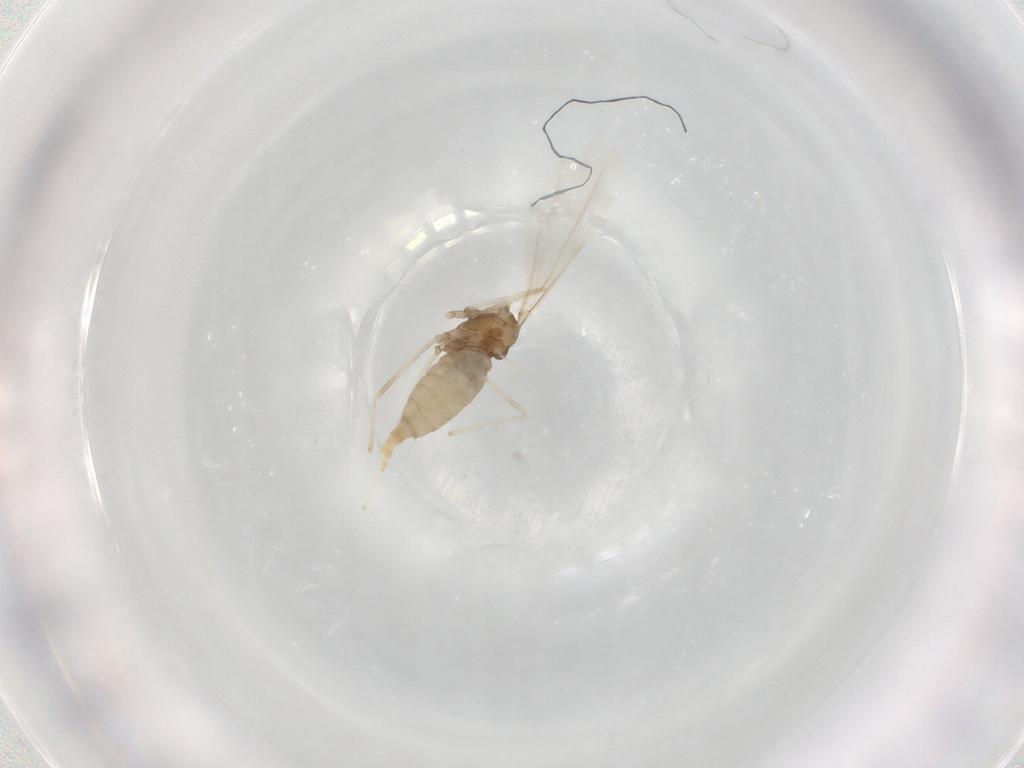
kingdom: Animalia
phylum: Arthropoda
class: Insecta
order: Diptera
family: Cecidomyiidae
